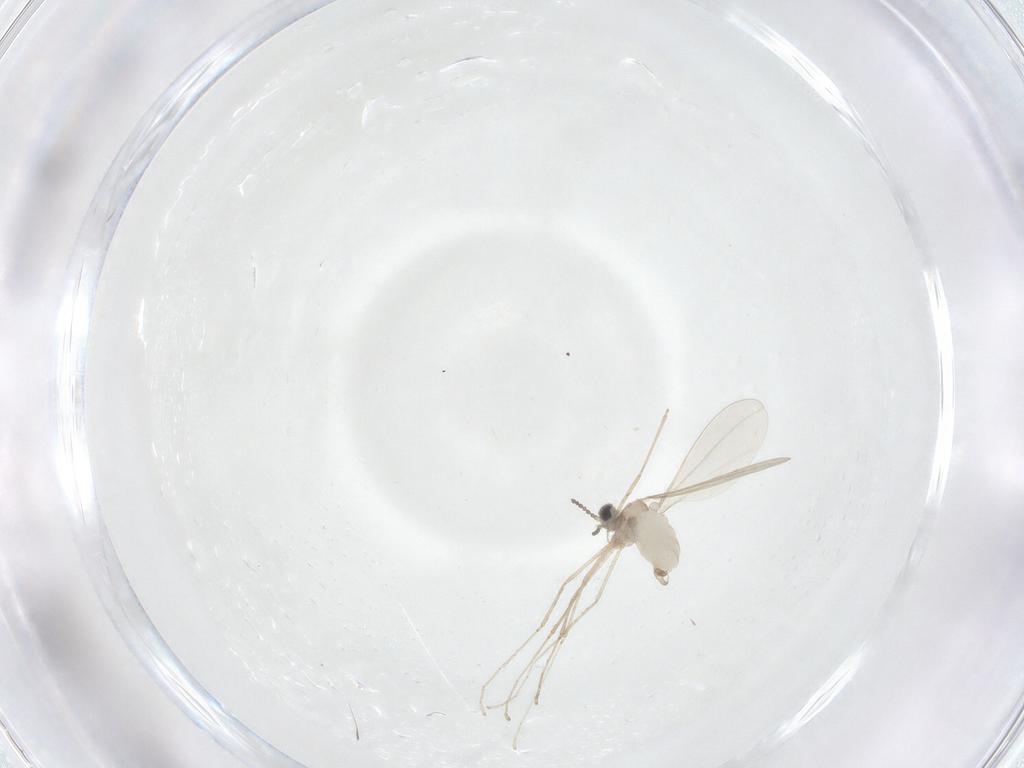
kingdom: Animalia
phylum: Arthropoda
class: Insecta
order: Diptera
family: Cecidomyiidae
